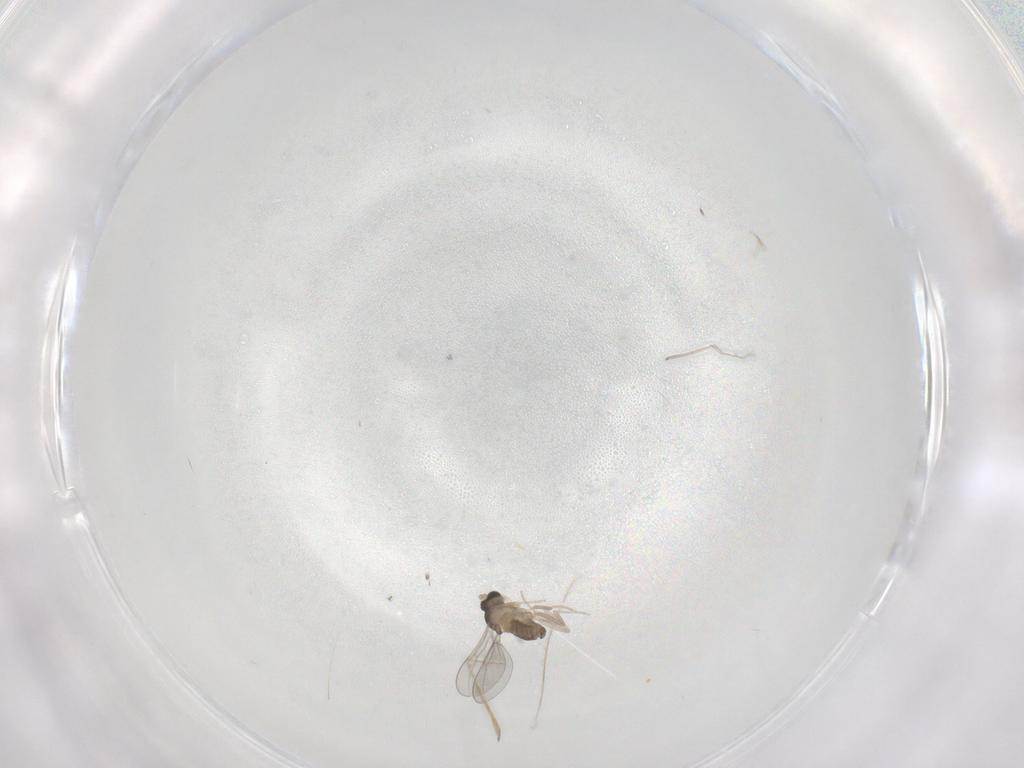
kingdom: Animalia
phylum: Arthropoda
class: Insecta
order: Diptera
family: Cecidomyiidae
